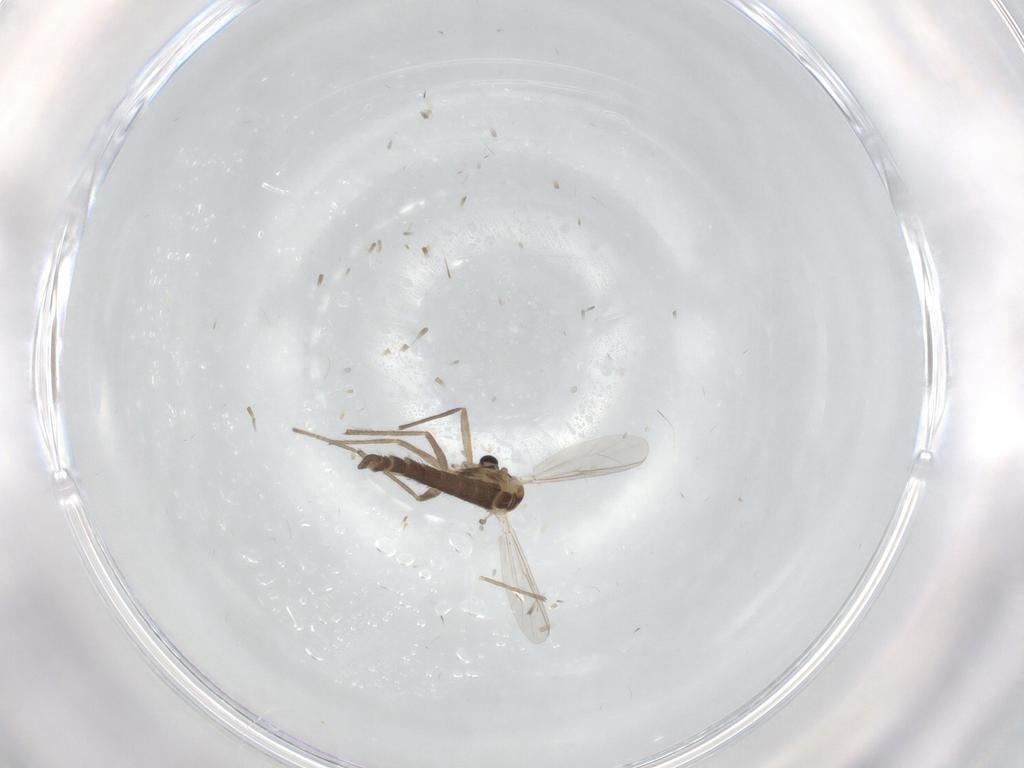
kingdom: Animalia
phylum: Arthropoda
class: Insecta
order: Diptera
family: Chironomidae
